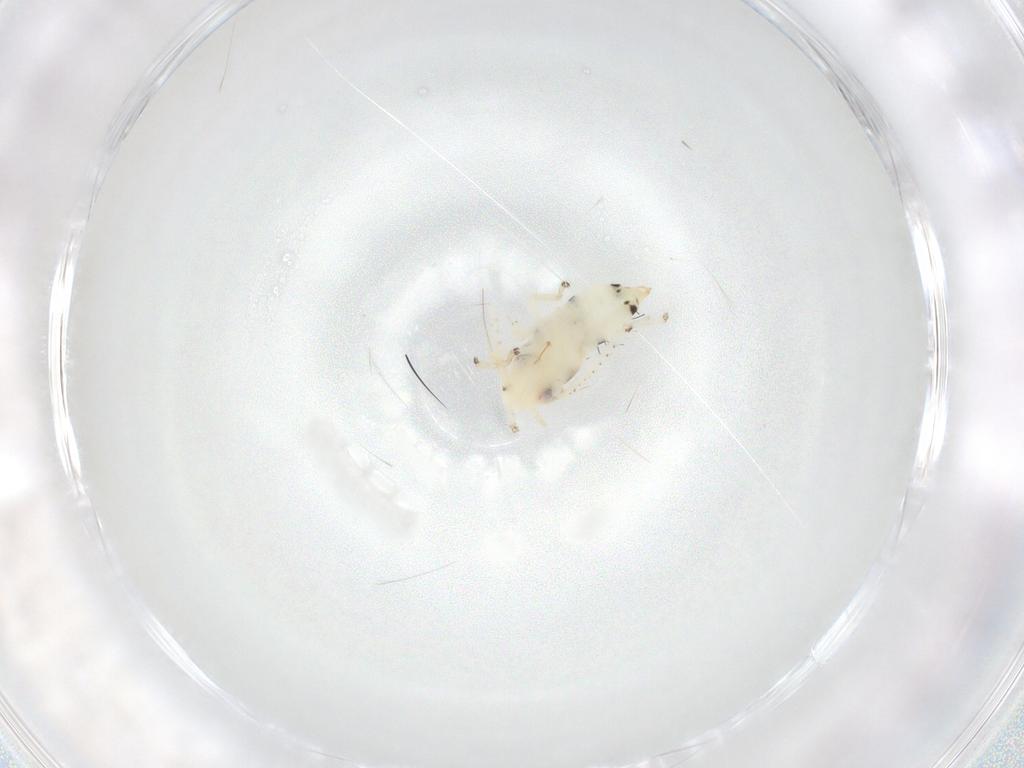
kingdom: Animalia
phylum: Arthropoda
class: Insecta
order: Hemiptera
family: Cicadellidae
